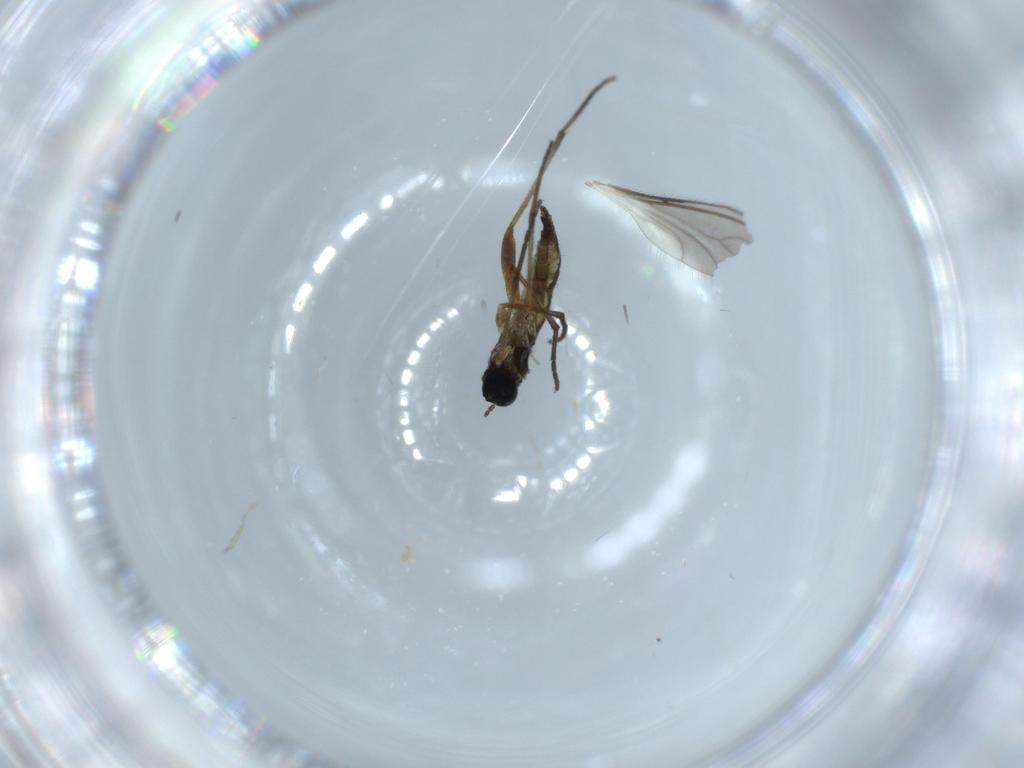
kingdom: Animalia
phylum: Arthropoda
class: Insecta
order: Diptera
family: Sciaridae
